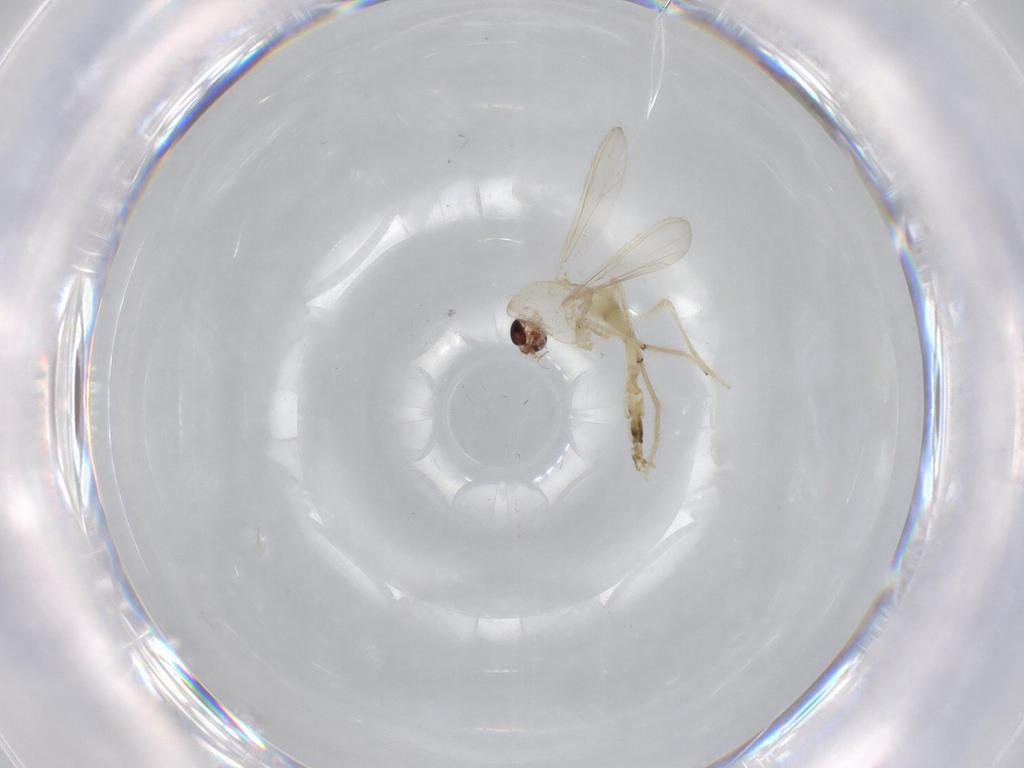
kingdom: Animalia
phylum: Arthropoda
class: Insecta
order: Diptera
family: Chironomidae
